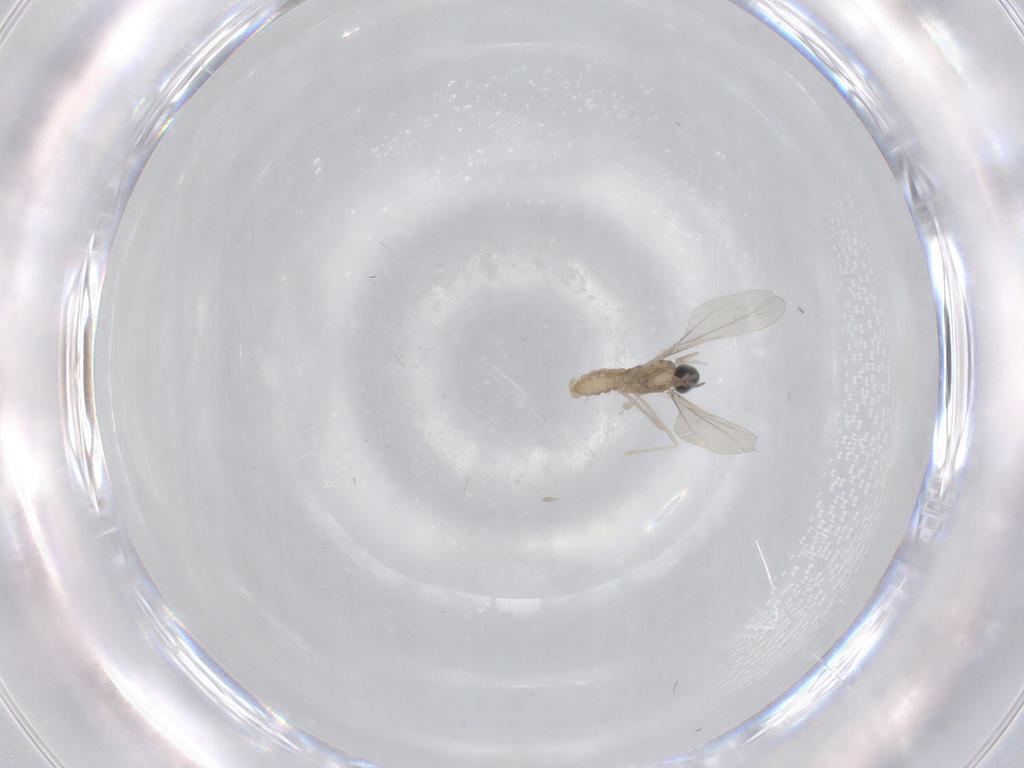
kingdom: Animalia
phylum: Arthropoda
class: Insecta
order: Diptera
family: Cecidomyiidae
